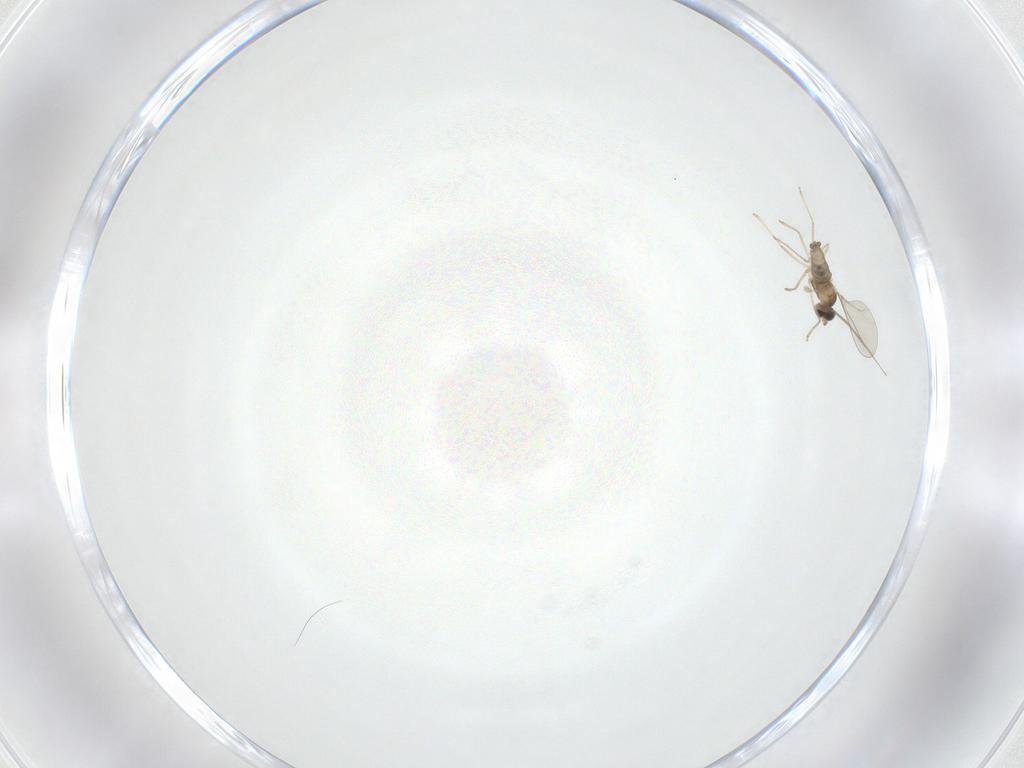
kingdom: Animalia
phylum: Arthropoda
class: Insecta
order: Diptera
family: Chironomidae
